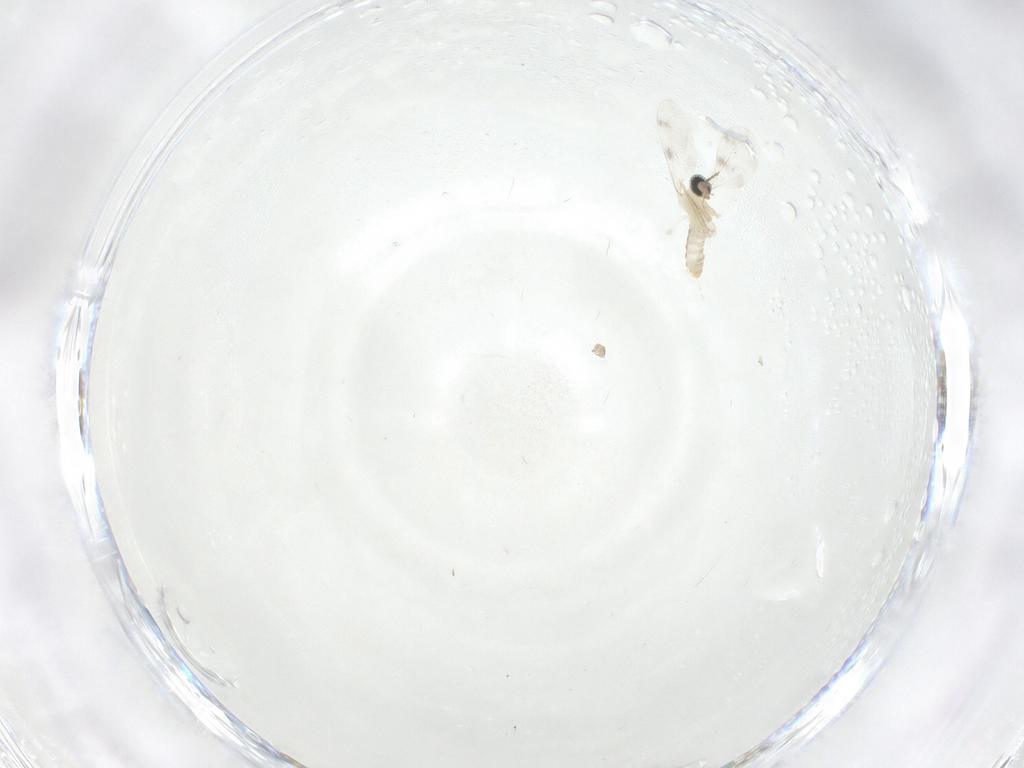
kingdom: Animalia
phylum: Arthropoda
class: Insecta
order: Diptera
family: Cecidomyiidae
